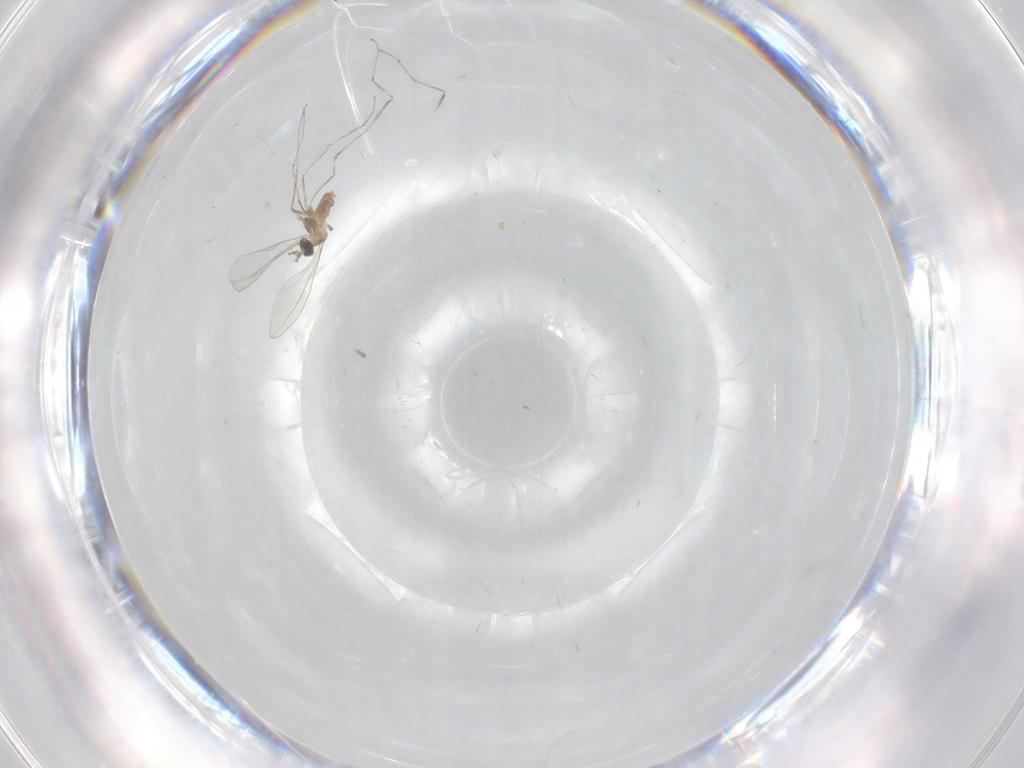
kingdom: Animalia
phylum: Arthropoda
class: Insecta
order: Diptera
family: Cecidomyiidae
